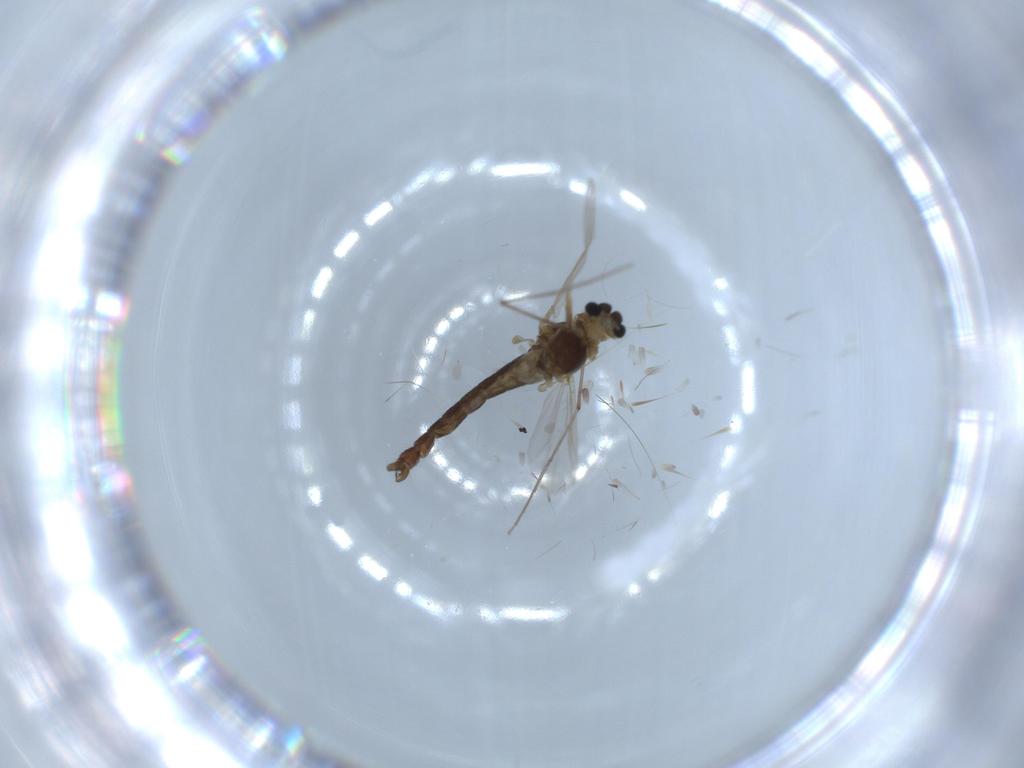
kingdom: Animalia
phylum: Arthropoda
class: Insecta
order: Diptera
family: Chironomidae
